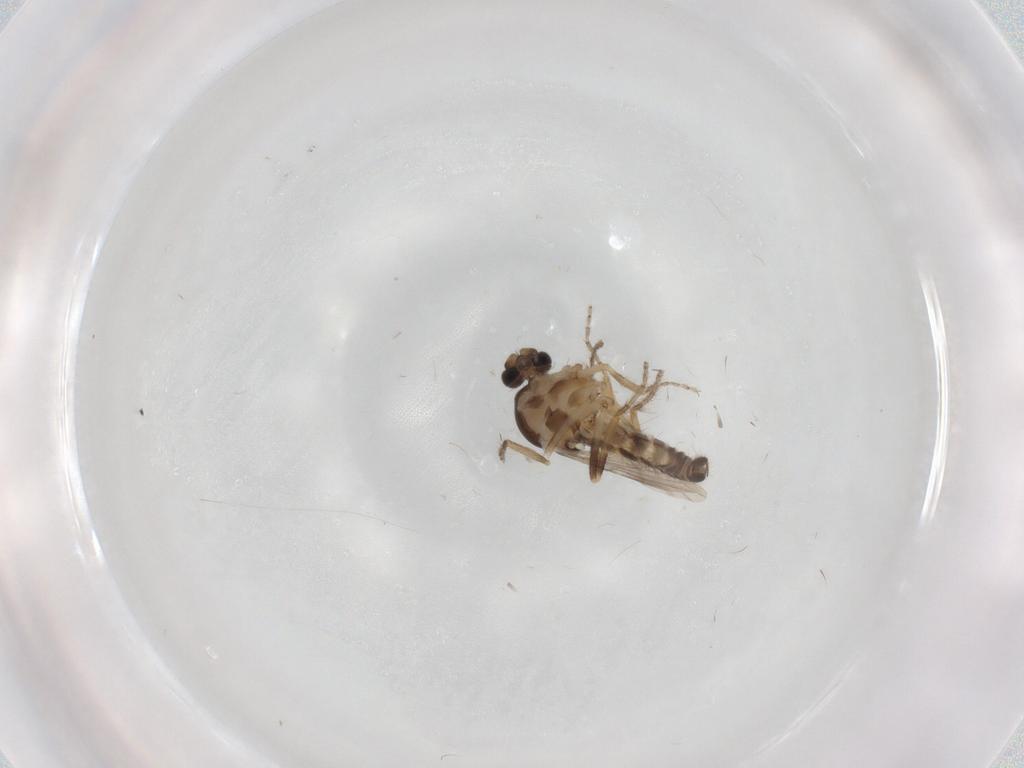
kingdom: Animalia
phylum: Arthropoda
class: Insecta
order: Diptera
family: Ceratopogonidae
